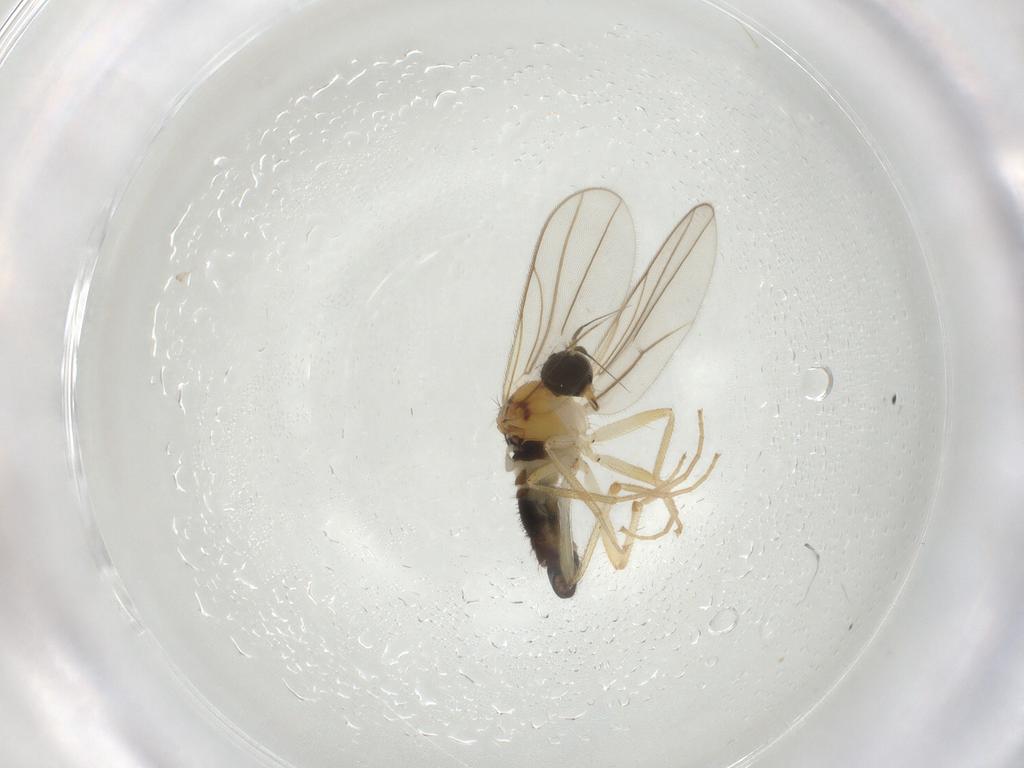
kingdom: Animalia
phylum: Arthropoda
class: Insecta
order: Diptera
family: Hybotidae
